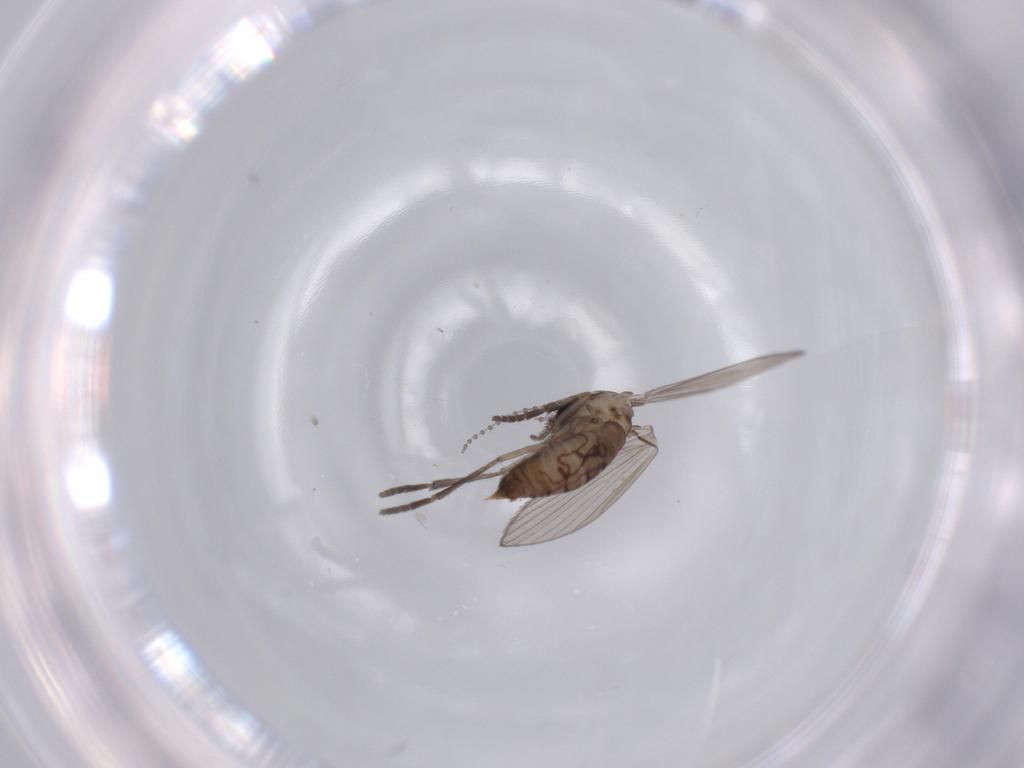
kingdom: Animalia
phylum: Arthropoda
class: Insecta
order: Diptera
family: Psychodidae
